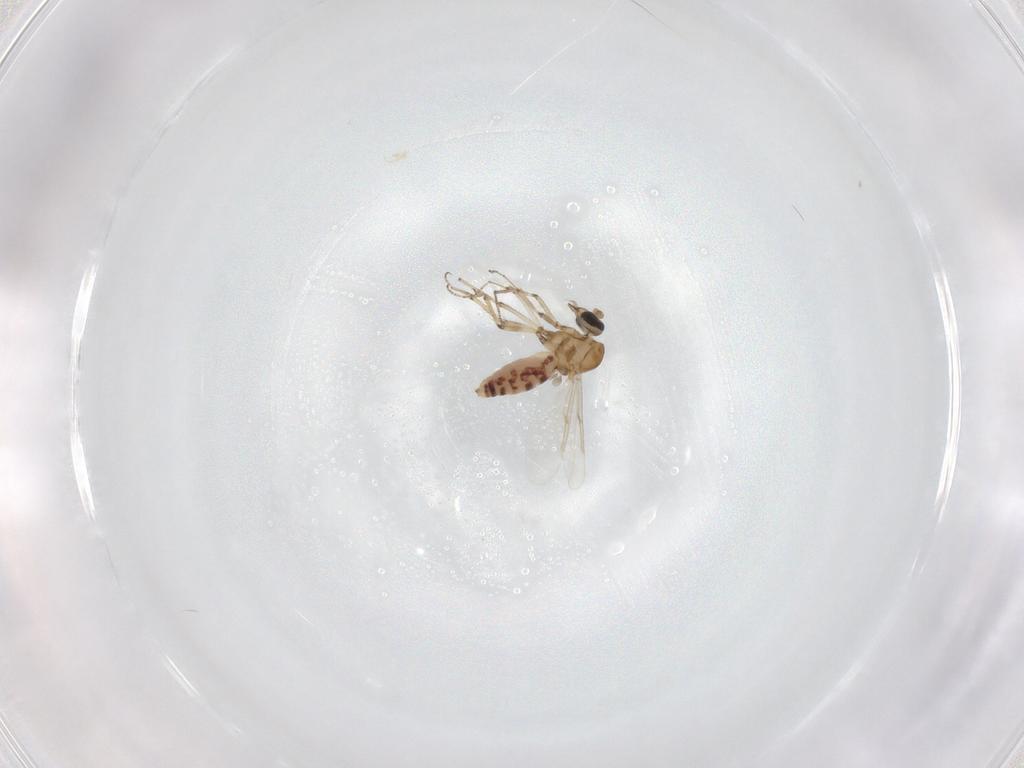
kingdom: Animalia
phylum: Arthropoda
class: Insecta
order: Diptera
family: Ceratopogonidae
